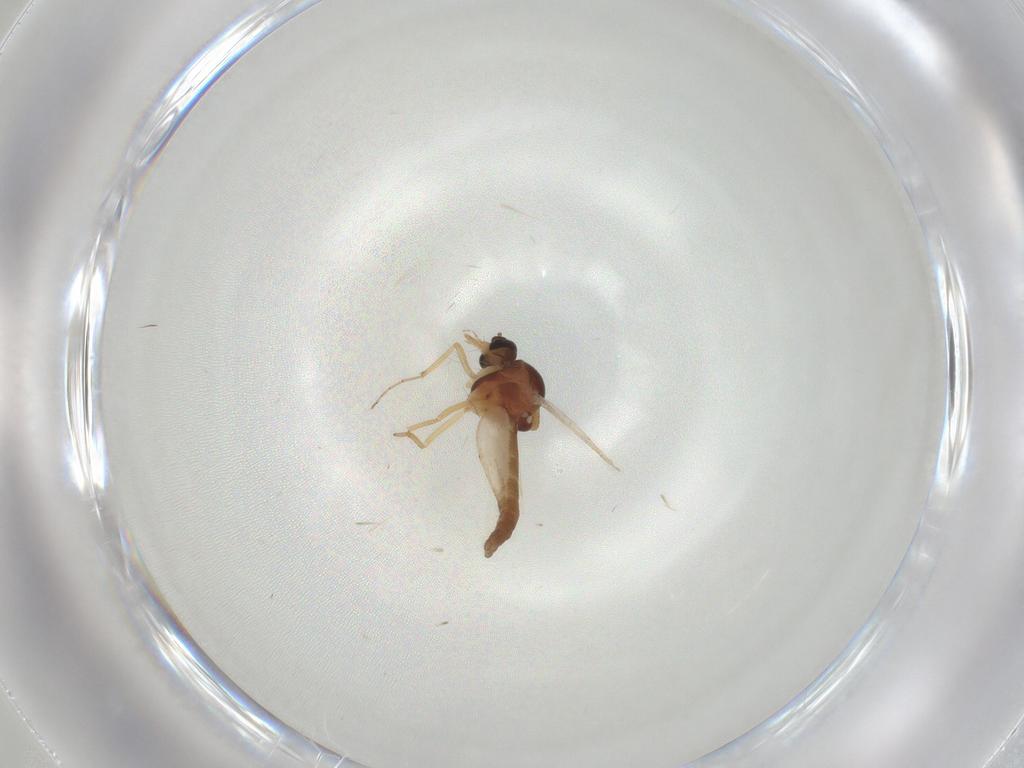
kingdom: Animalia
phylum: Arthropoda
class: Insecta
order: Diptera
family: Ceratopogonidae
